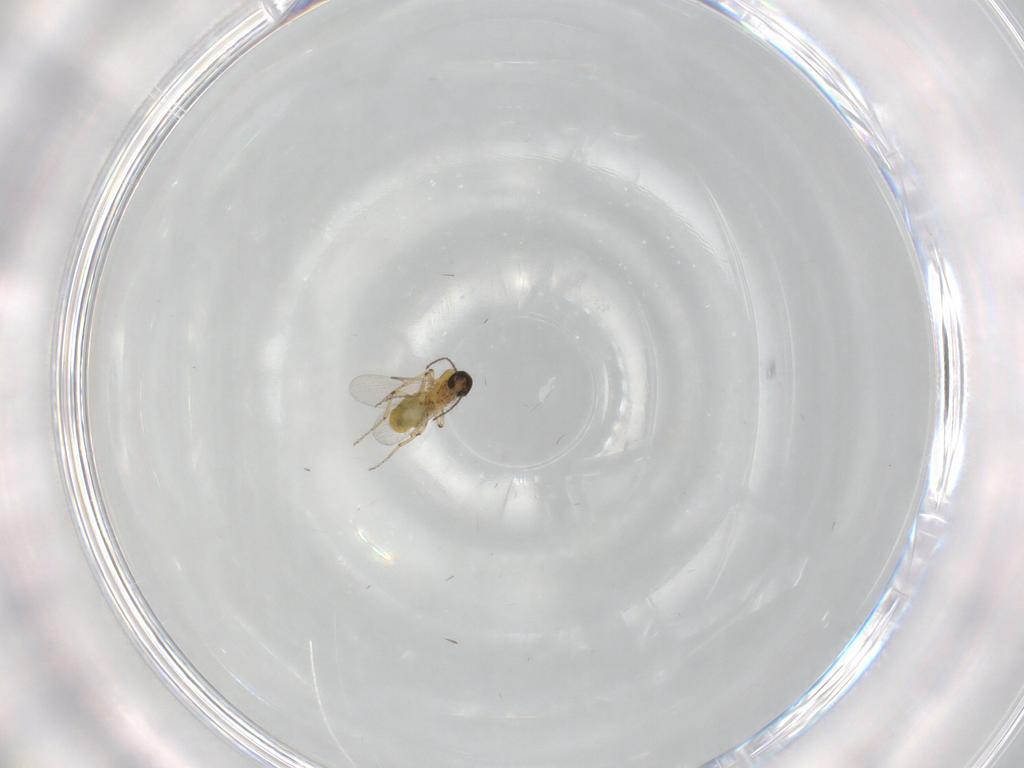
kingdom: Animalia
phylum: Arthropoda
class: Insecta
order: Diptera
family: Ceratopogonidae
